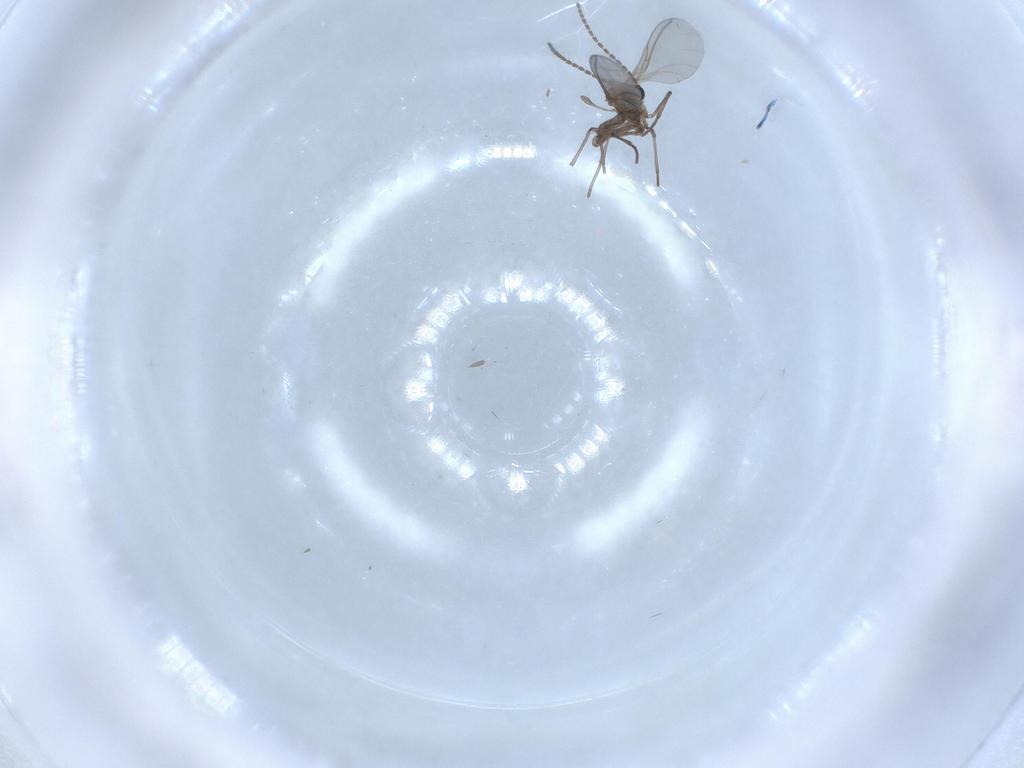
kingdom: Animalia
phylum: Arthropoda
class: Insecta
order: Diptera
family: Sciaridae
